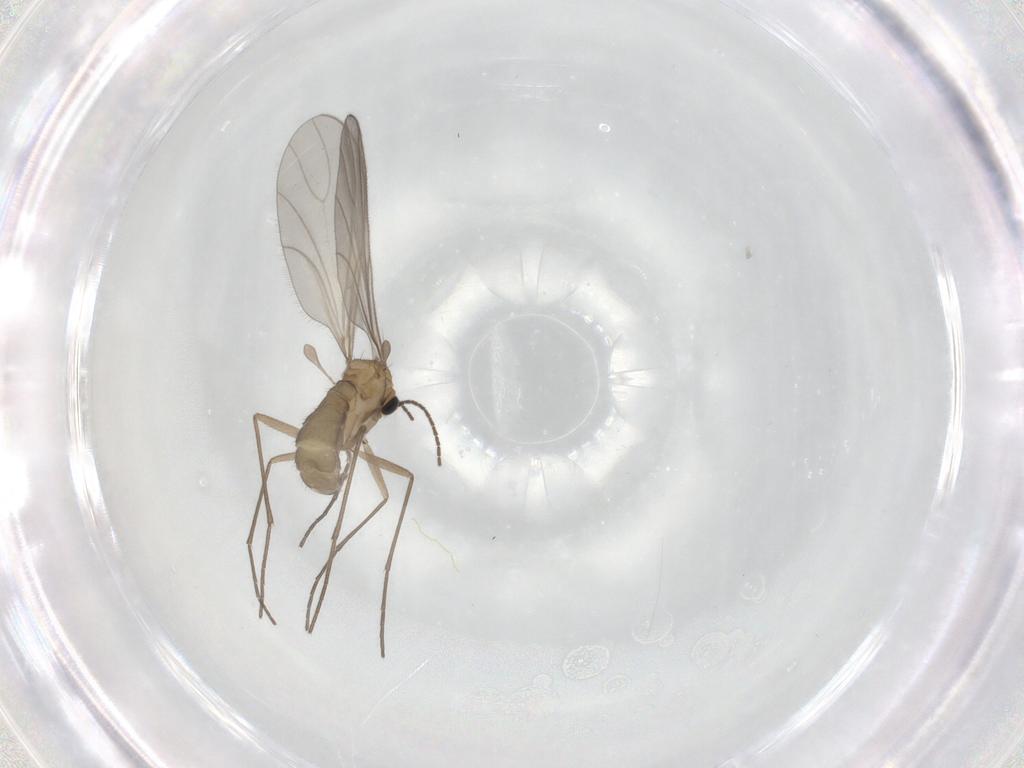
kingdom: Animalia
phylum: Arthropoda
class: Insecta
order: Diptera
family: Sciaridae
